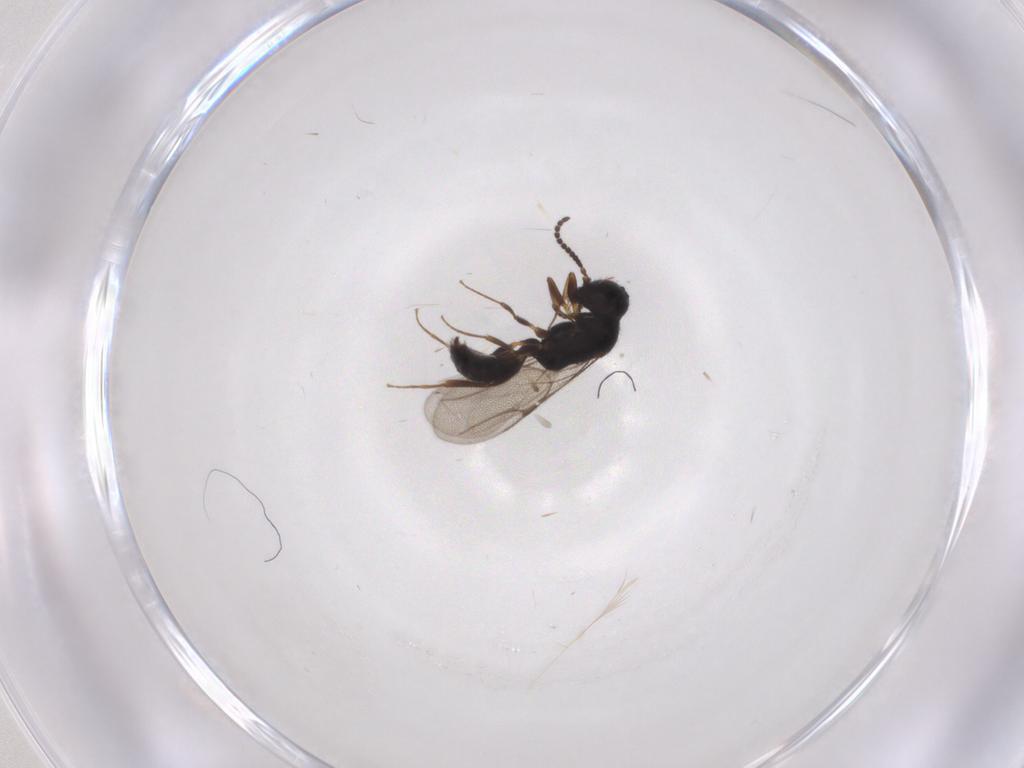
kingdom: Animalia
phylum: Arthropoda
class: Insecta
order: Hymenoptera
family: Bethylidae
